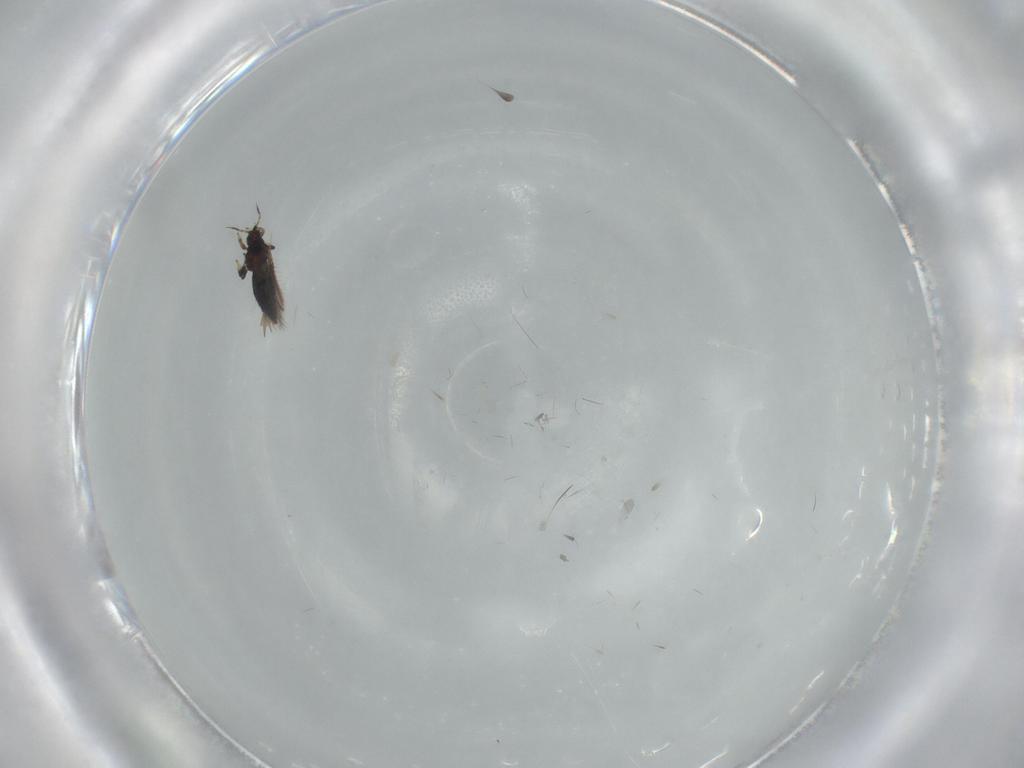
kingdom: Animalia
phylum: Arthropoda
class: Insecta
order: Thysanoptera
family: Thripidae
